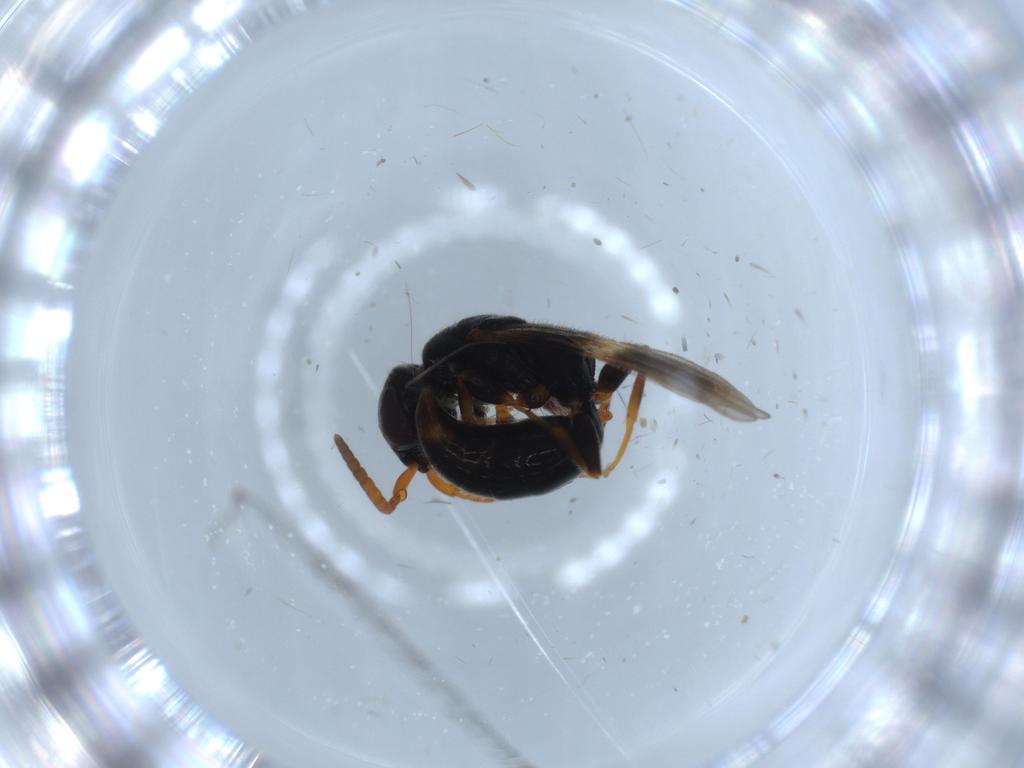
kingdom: Animalia
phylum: Arthropoda
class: Insecta
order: Hymenoptera
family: Bethylidae
